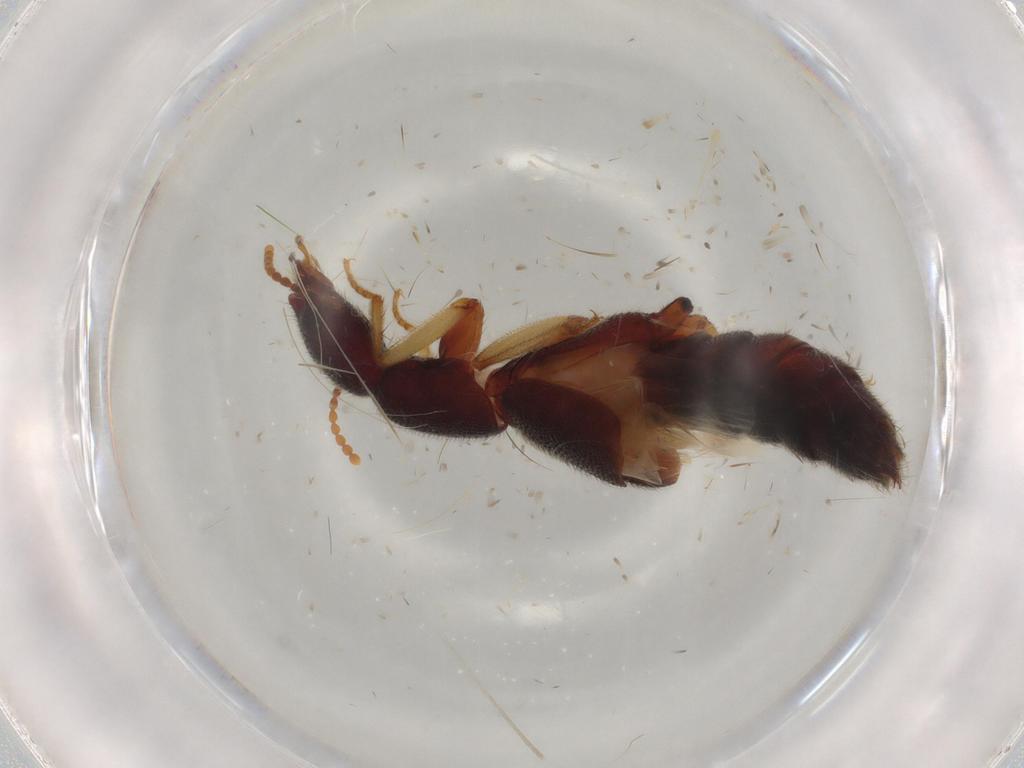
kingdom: Animalia
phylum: Arthropoda
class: Insecta
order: Coleoptera
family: Staphylinidae
